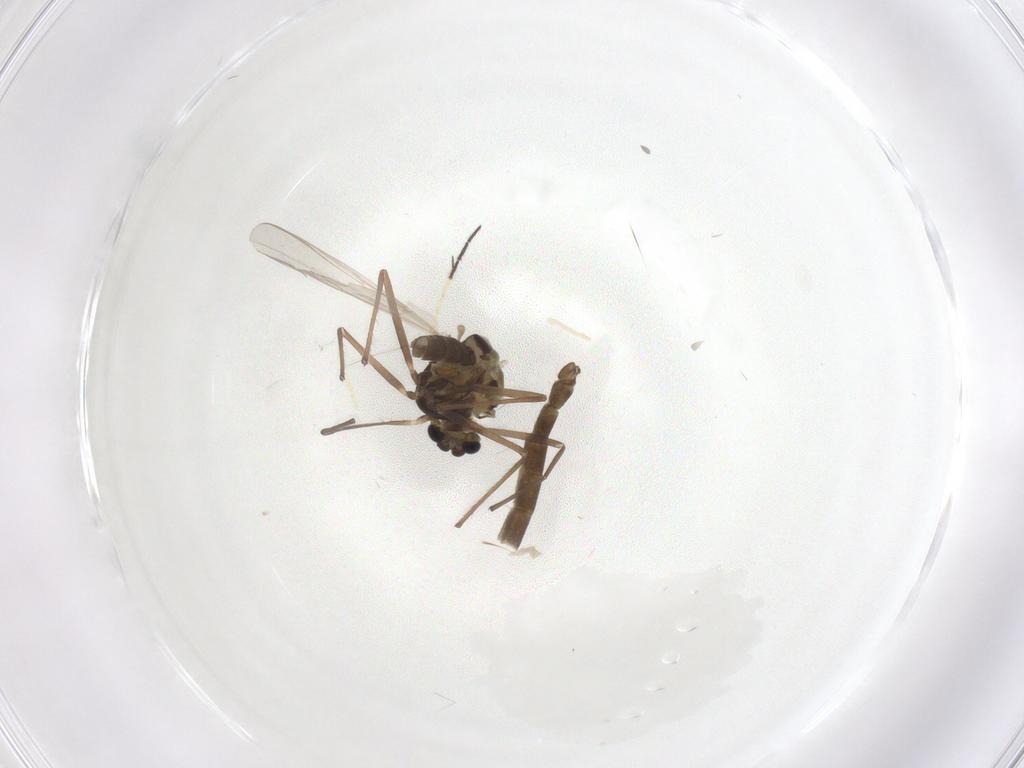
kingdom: Animalia
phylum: Arthropoda
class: Insecta
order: Diptera
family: Chironomidae
